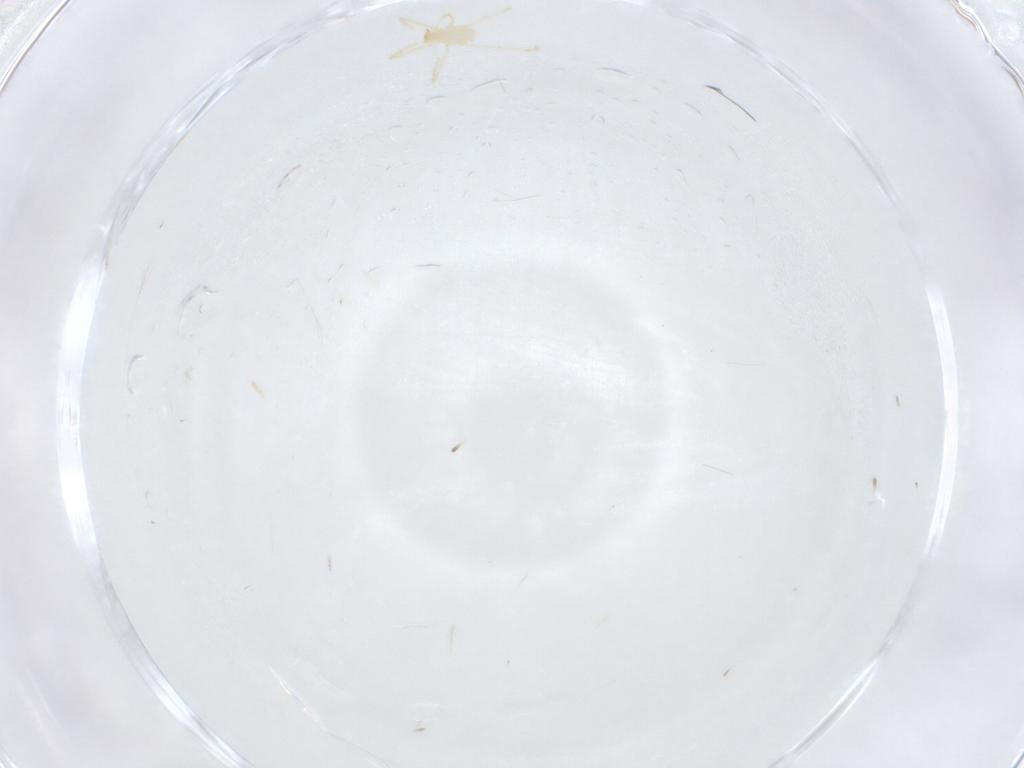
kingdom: Animalia
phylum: Arthropoda
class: Arachnida
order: Trombidiformes
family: Erythraeidae
